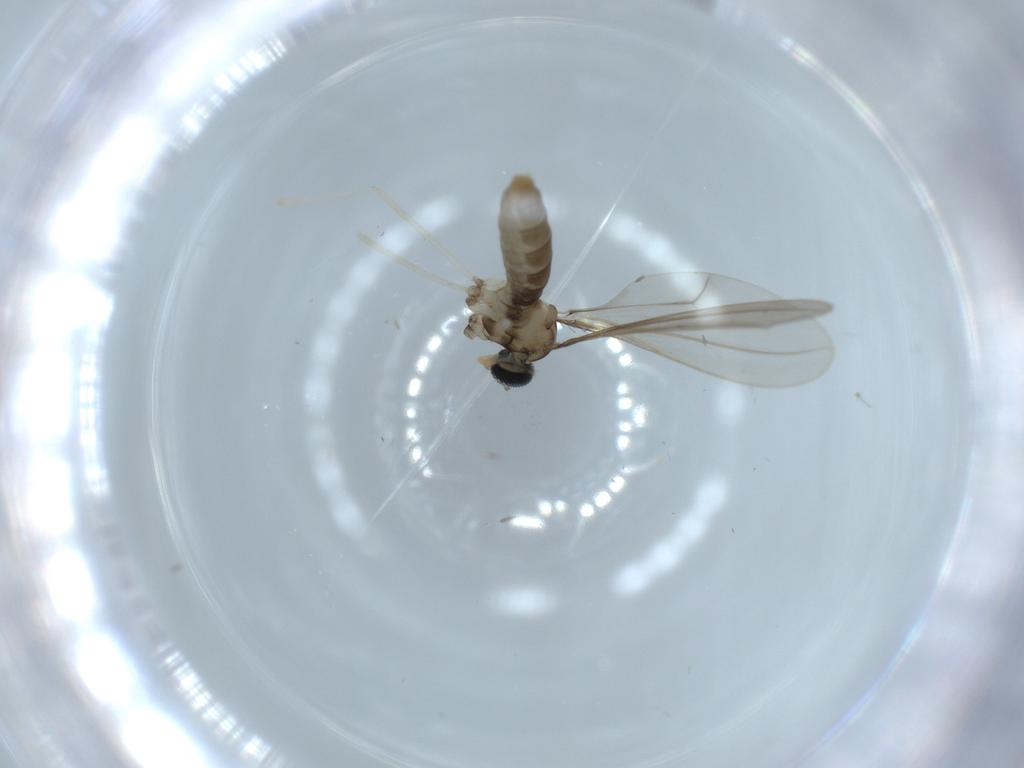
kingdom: Animalia
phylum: Arthropoda
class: Insecta
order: Diptera
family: Cecidomyiidae
